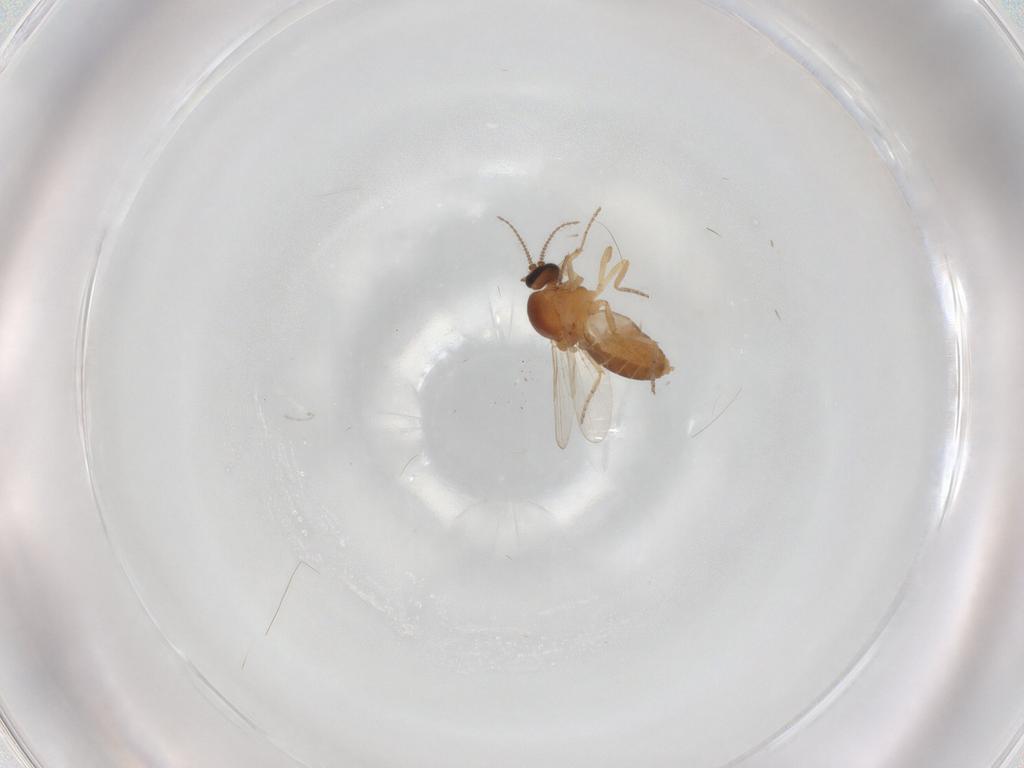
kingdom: Animalia
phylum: Arthropoda
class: Insecta
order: Diptera
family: Ceratopogonidae
